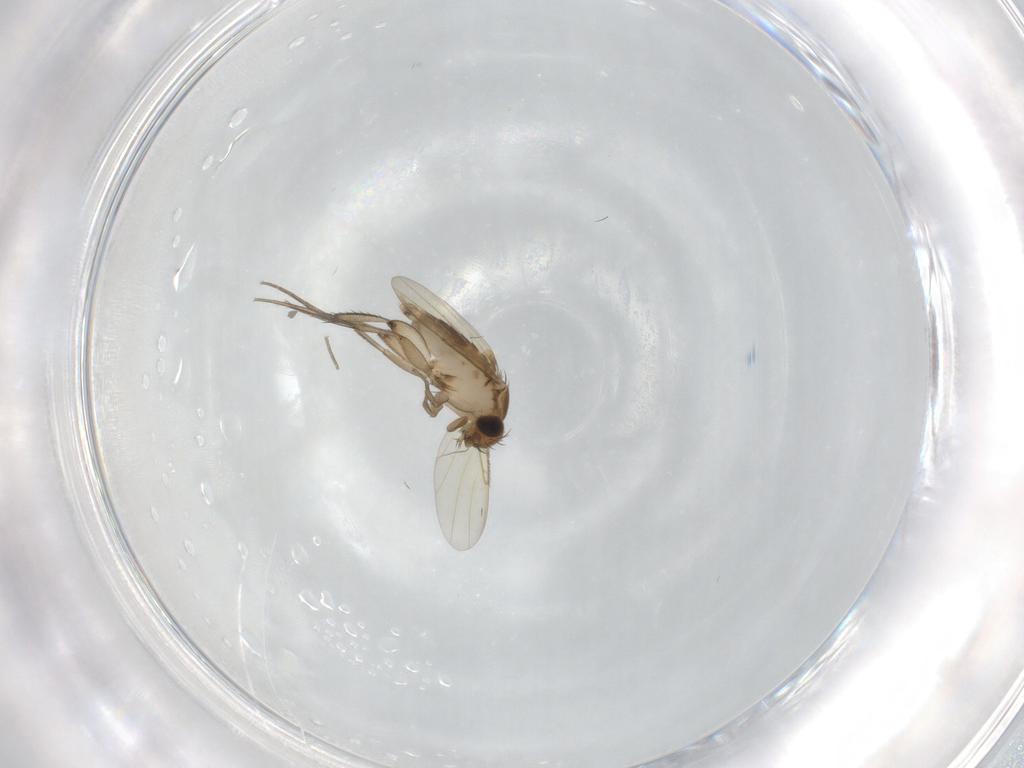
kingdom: Animalia
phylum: Arthropoda
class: Insecta
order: Diptera
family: Phoridae
